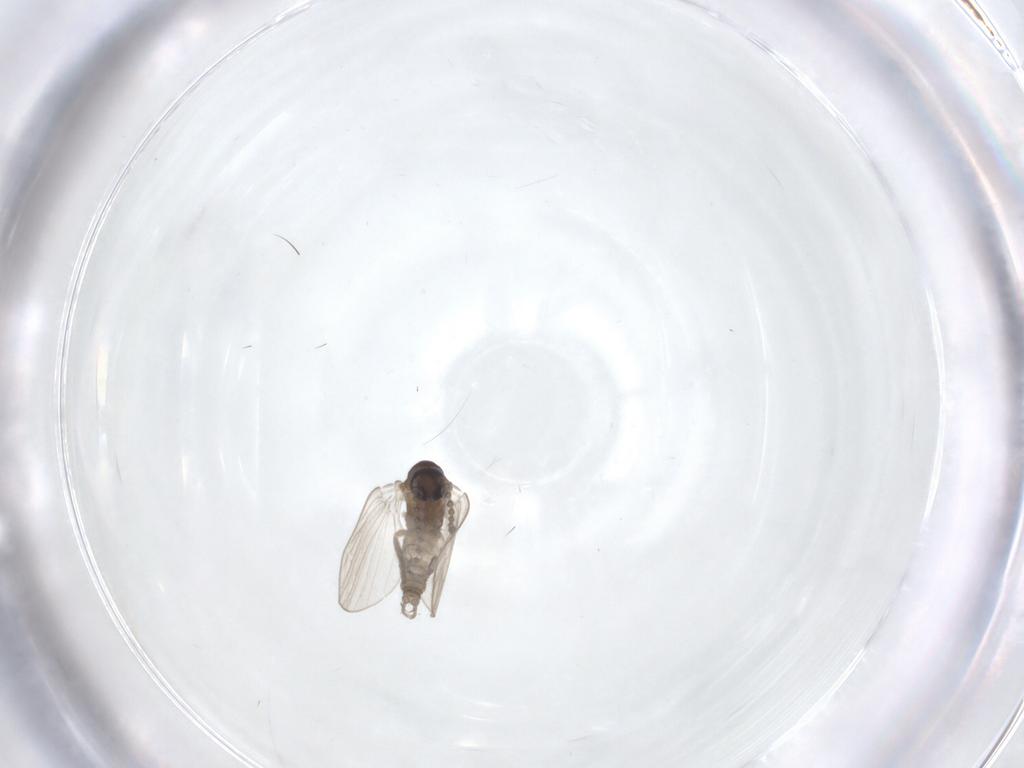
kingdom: Animalia
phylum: Arthropoda
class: Insecta
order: Diptera
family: Psychodidae
